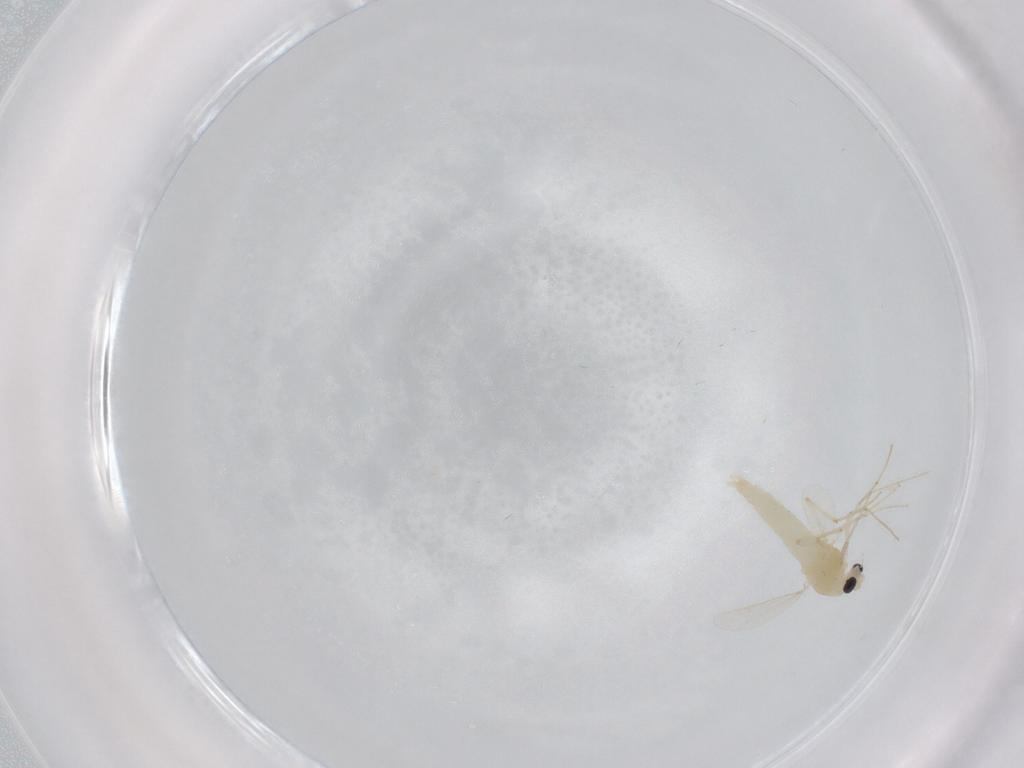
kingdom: Animalia
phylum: Arthropoda
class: Insecta
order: Diptera
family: Chironomidae
